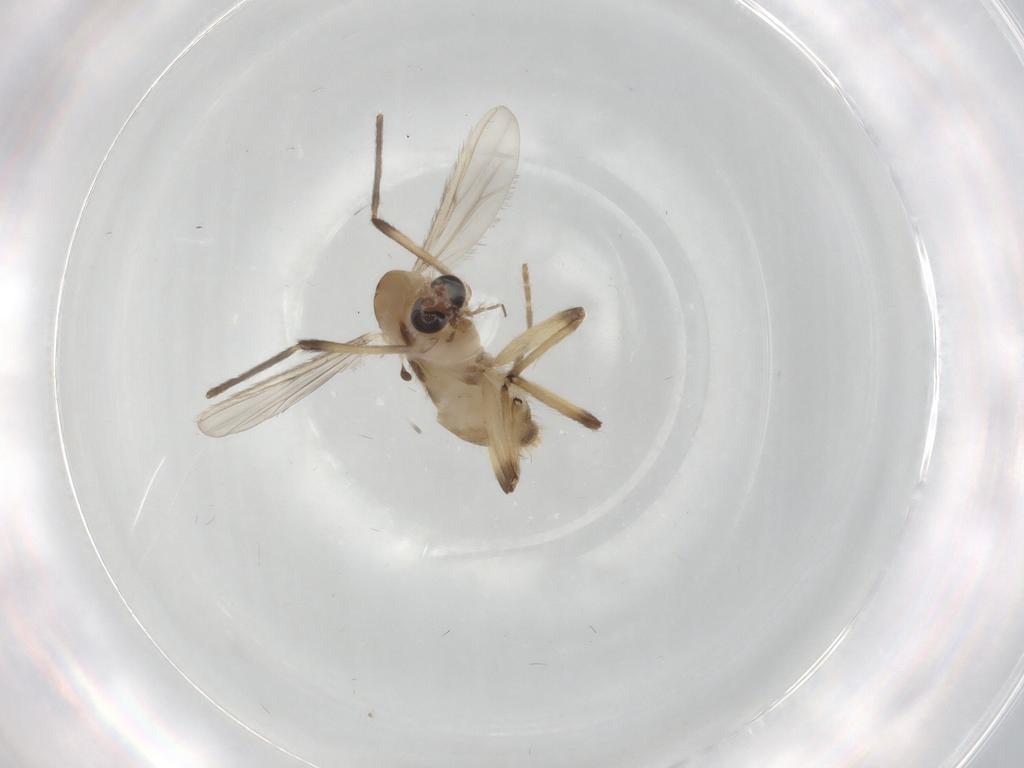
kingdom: Animalia
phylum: Arthropoda
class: Insecta
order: Diptera
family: Chironomidae
